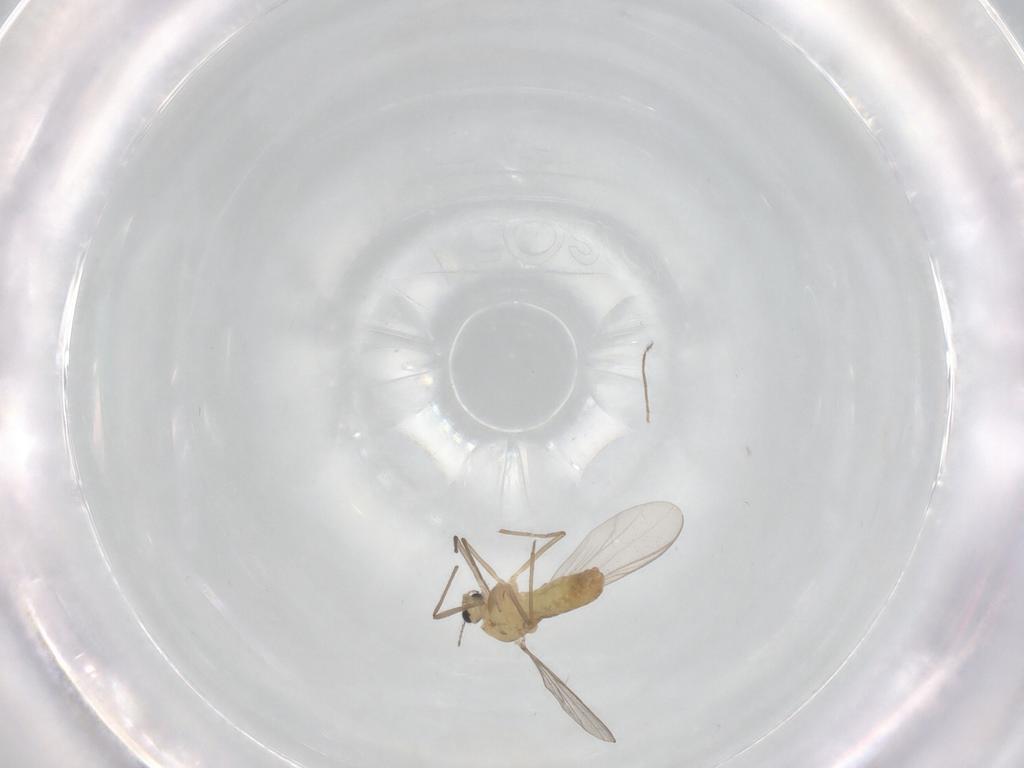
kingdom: Animalia
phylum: Arthropoda
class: Insecta
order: Diptera
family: Chironomidae
